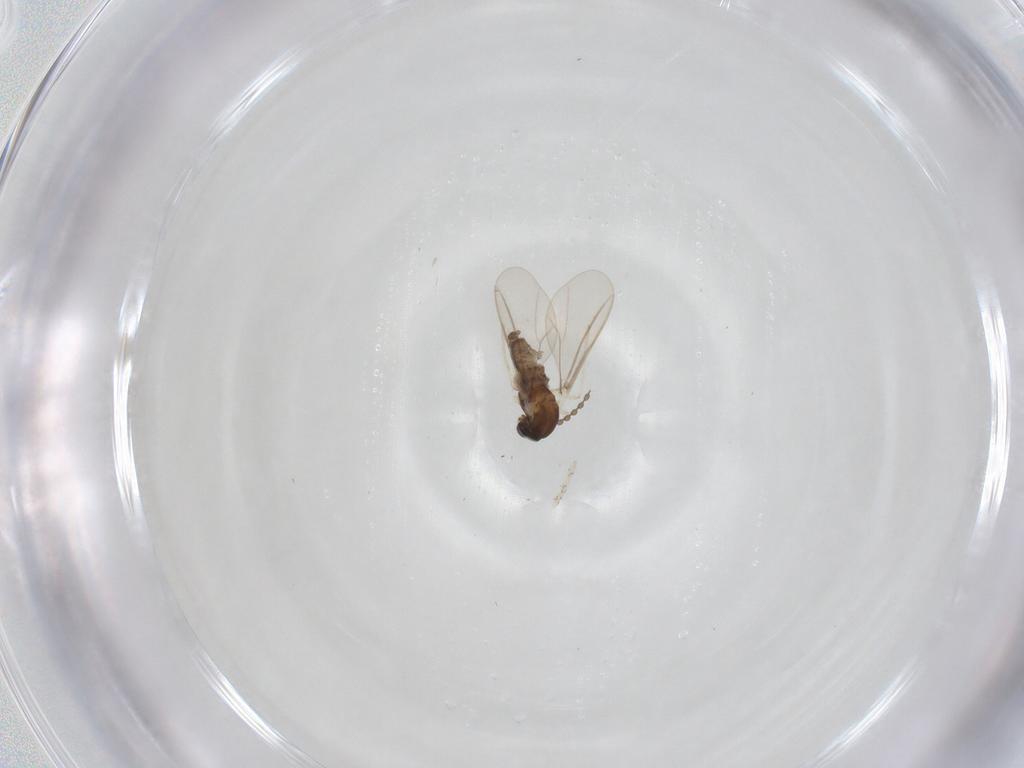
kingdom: Animalia
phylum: Arthropoda
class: Insecta
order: Diptera
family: Cecidomyiidae
